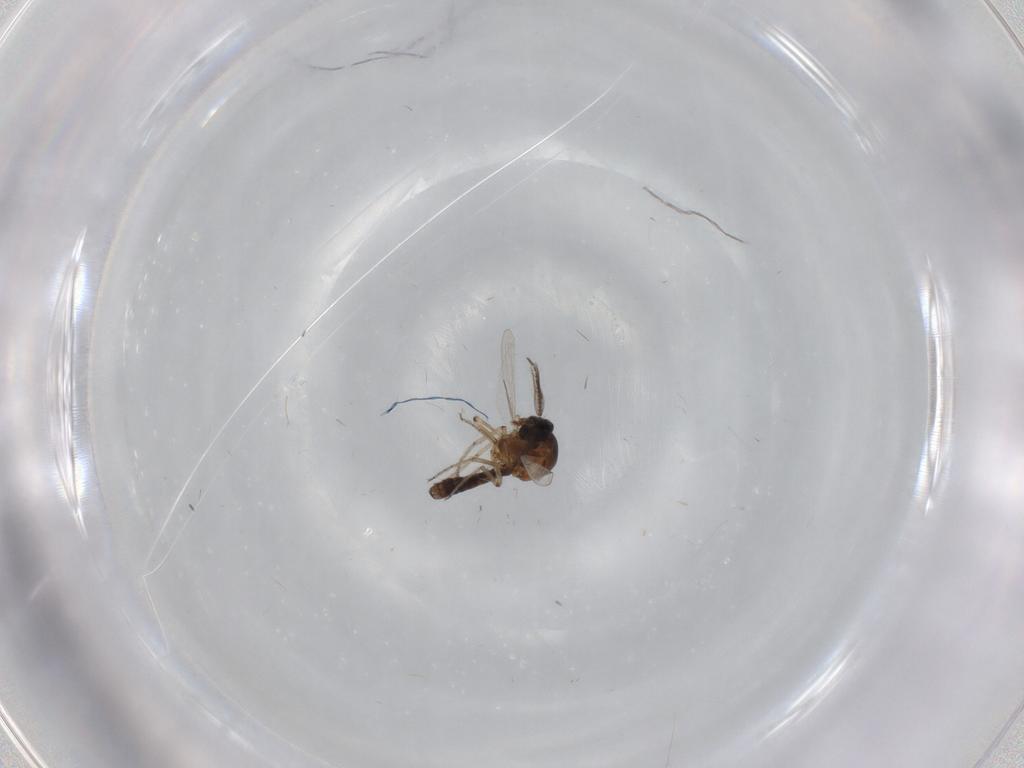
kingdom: Animalia
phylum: Arthropoda
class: Insecta
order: Diptera
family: Ceratopogonidae
